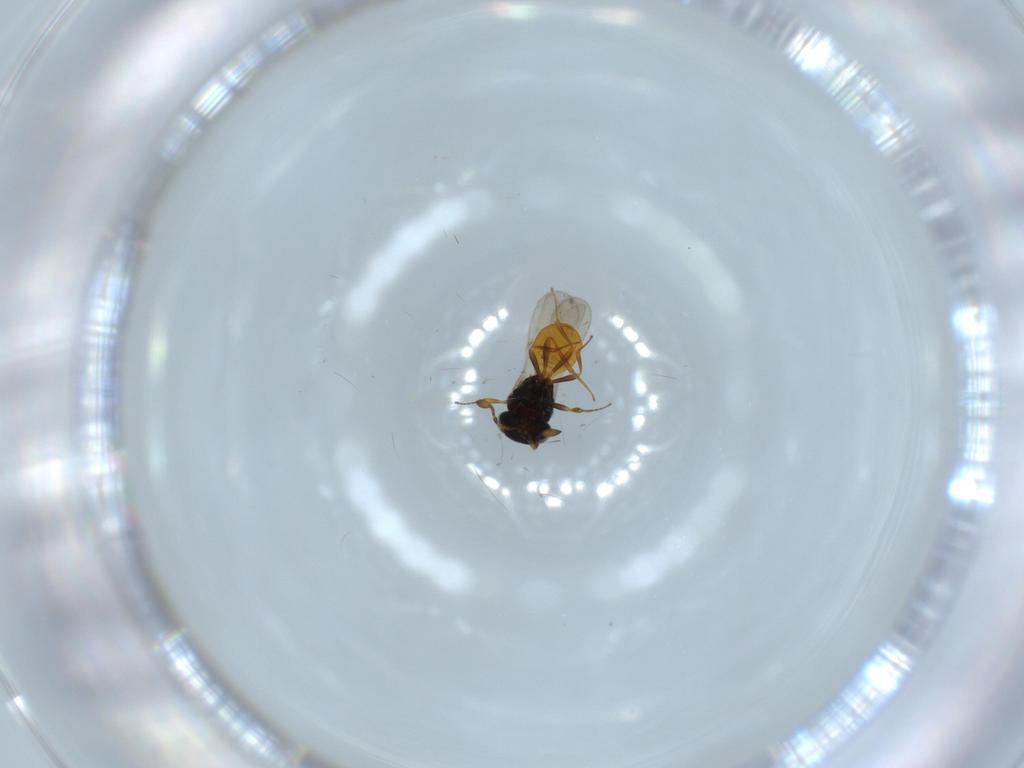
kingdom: Animalia
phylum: Arthropoda
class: Insecta
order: Hymenoptera
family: Scelionidae
